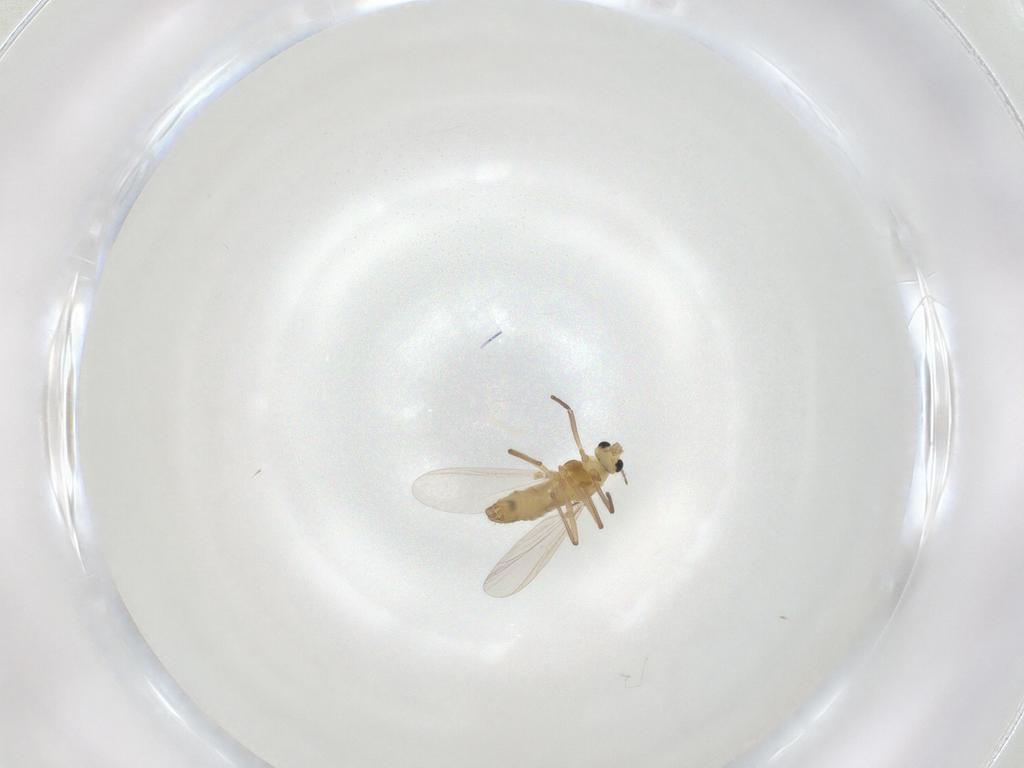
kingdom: Animalia
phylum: Arthropoda
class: Insecta
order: Diptera
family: Chironomidae
